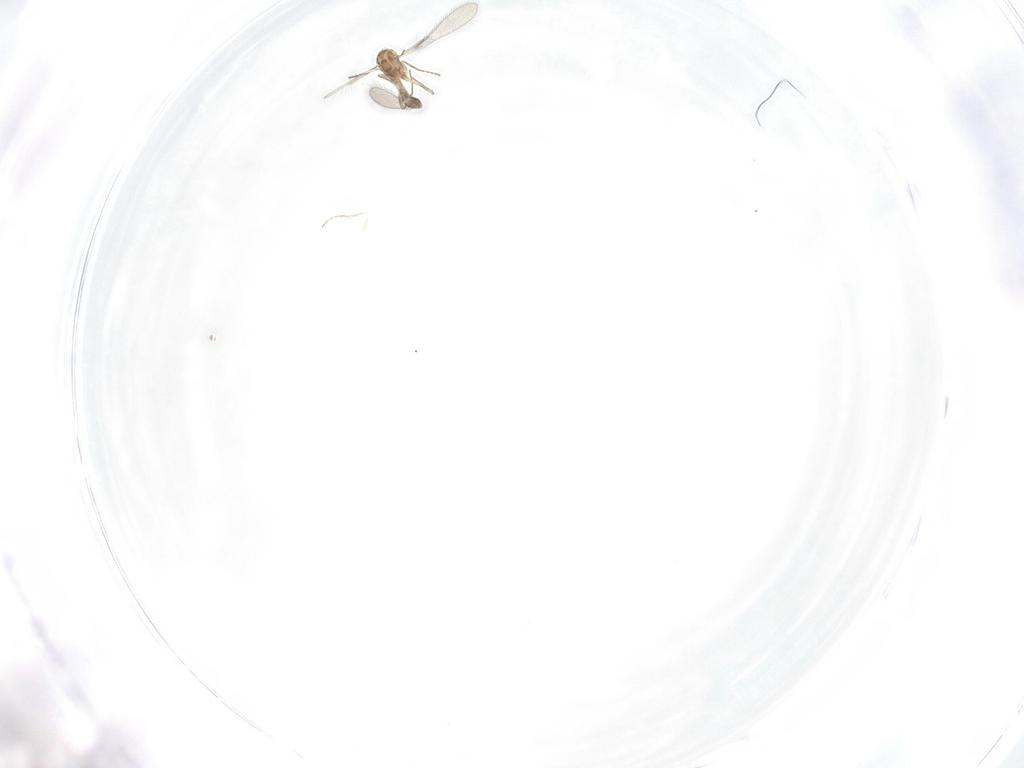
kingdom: Animalia
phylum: Arthropoda
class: Insecta
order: Hymenoptera
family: Mymaridae
